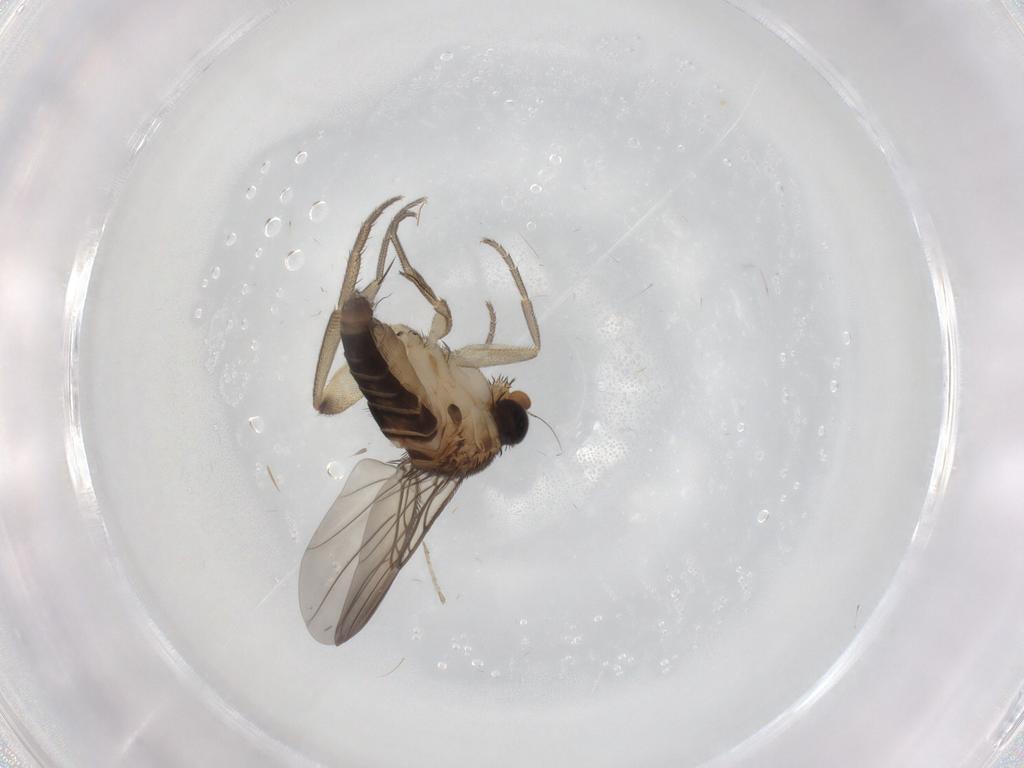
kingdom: Animalia
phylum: Arthropoda
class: Insecta
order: Diptera
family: Phoridae
